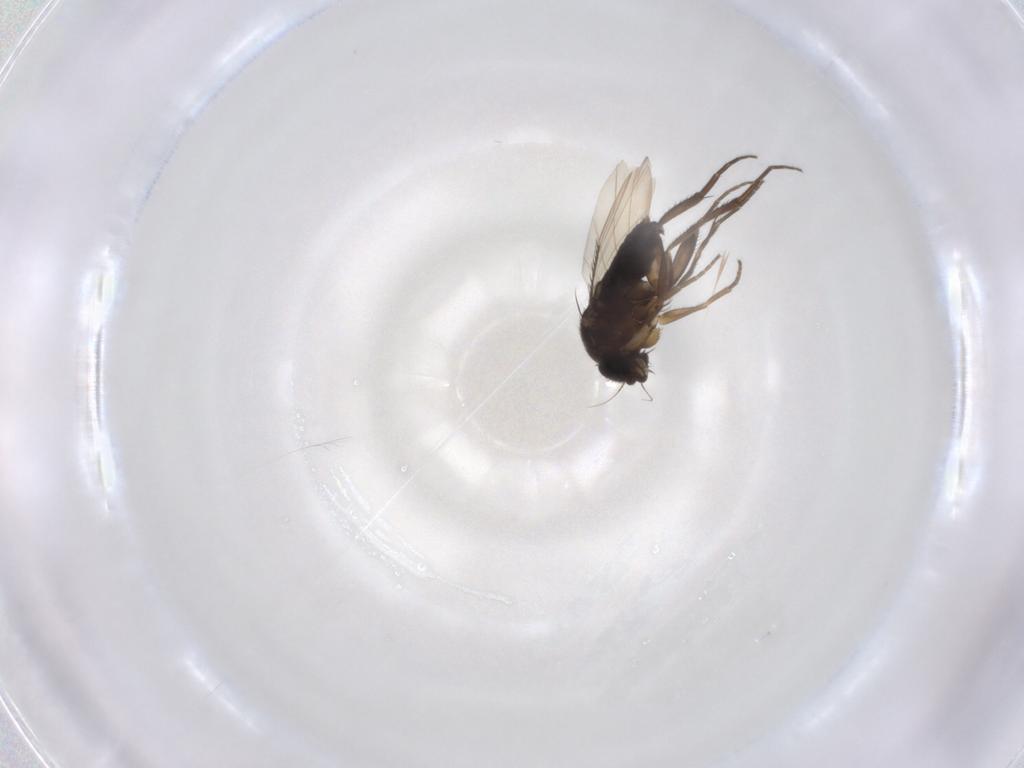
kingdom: Animalia
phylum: Arthropoda
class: Insecta
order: Diptera
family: Phoridae
